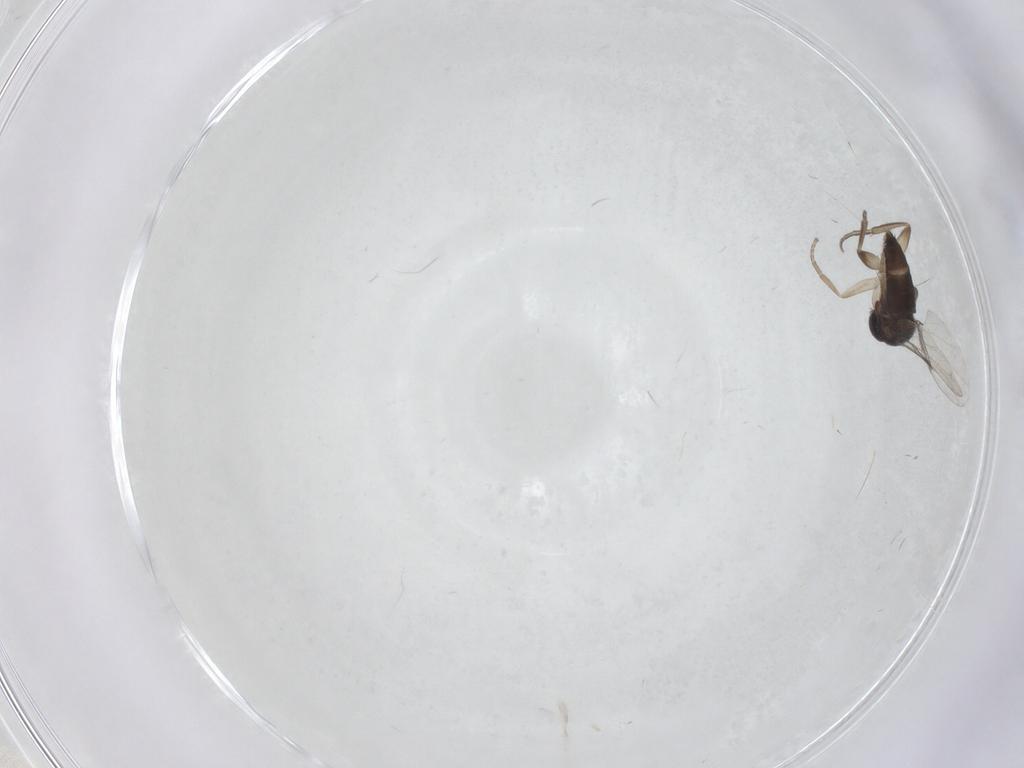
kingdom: Animalia
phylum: Arthropoda
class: Insecta
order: Diptera
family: Phoridae
